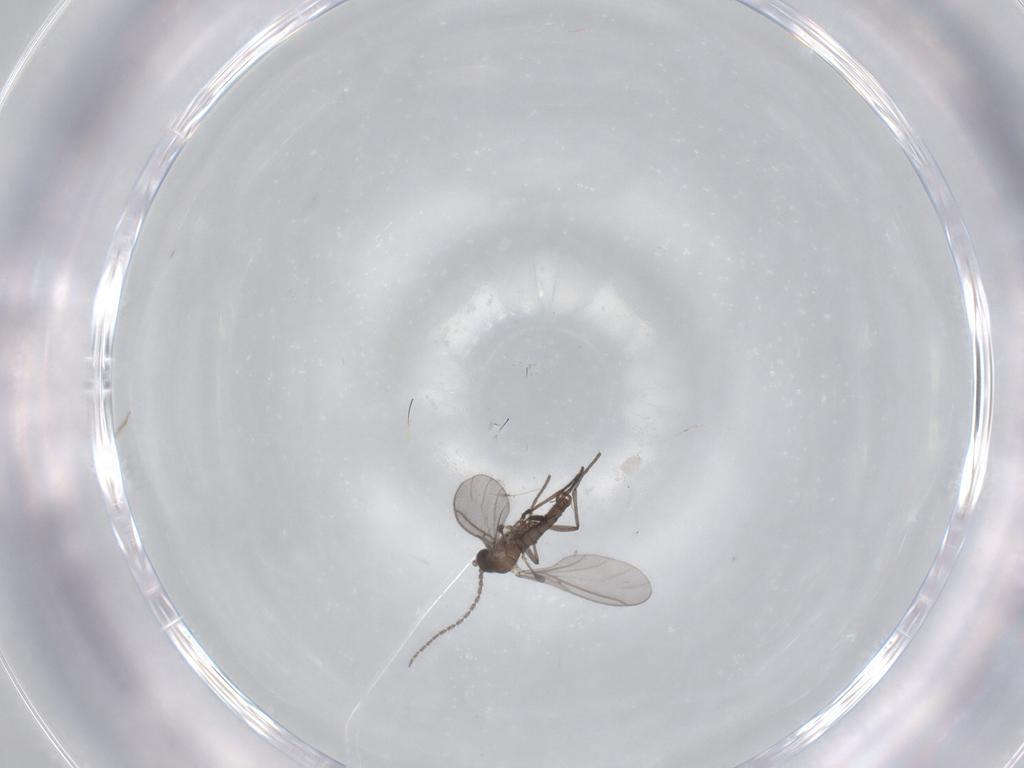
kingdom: Animalia
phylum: Arthropoda
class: Insecta
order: Diptera
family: Sciaridae
